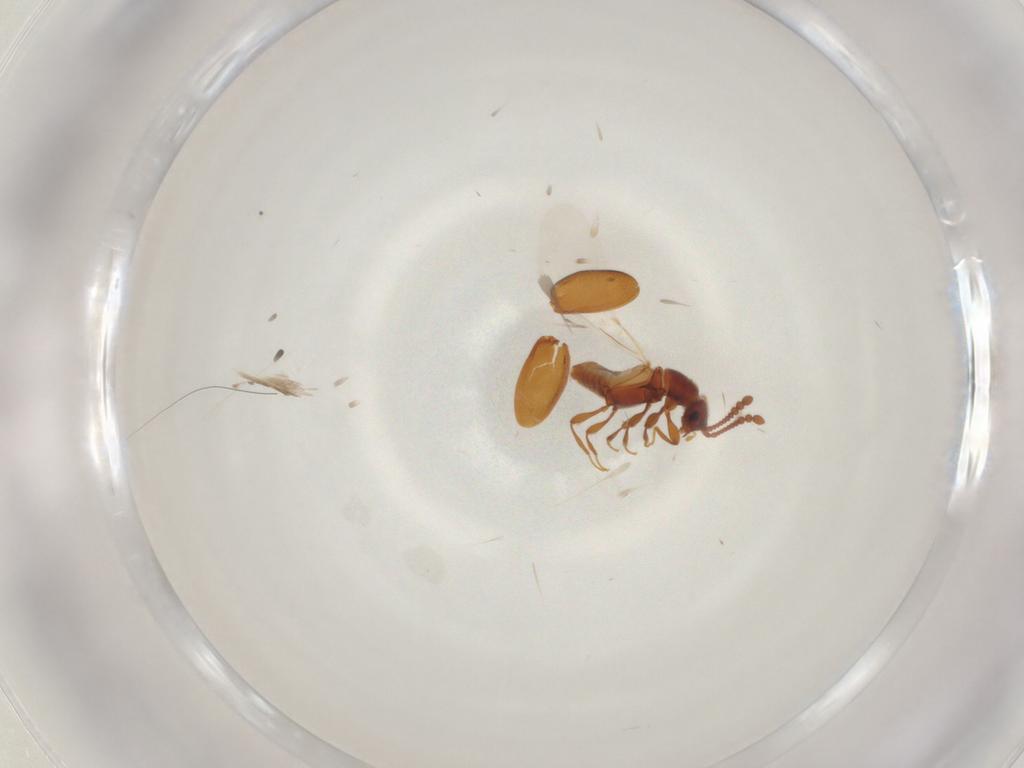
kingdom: Animalia
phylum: Arthropoda
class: Insecta
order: Coleoptera
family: Staphylinidae
